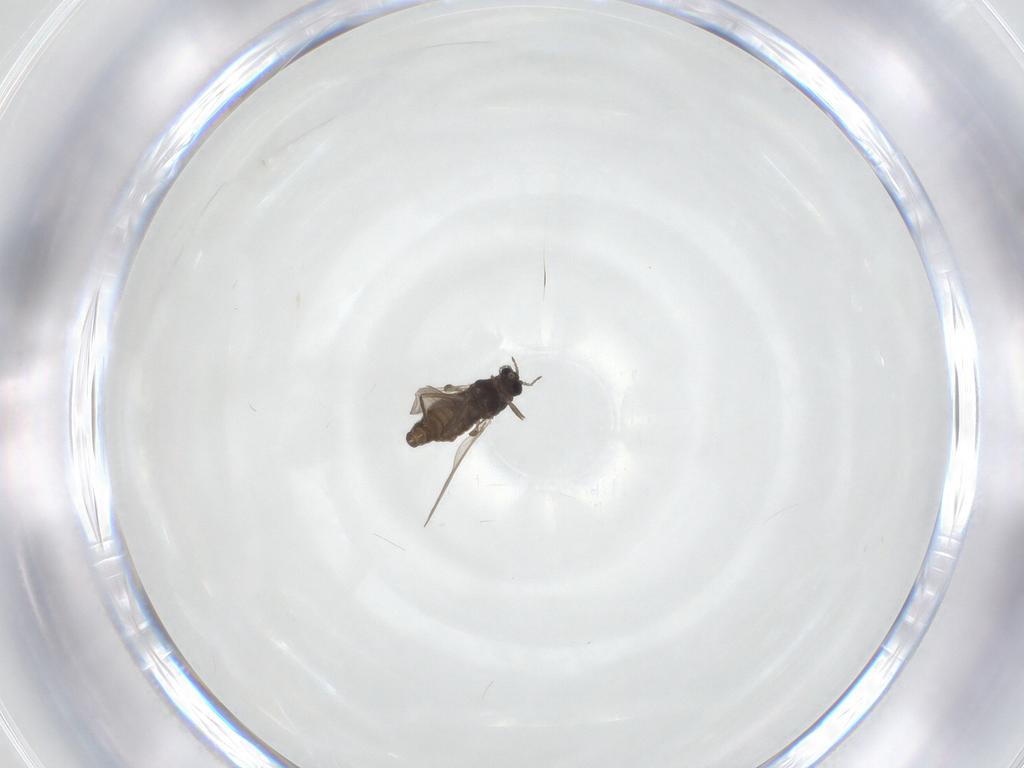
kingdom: Animalia
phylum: Arthropoda
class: Insecta
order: Diptera
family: Chironomidae
